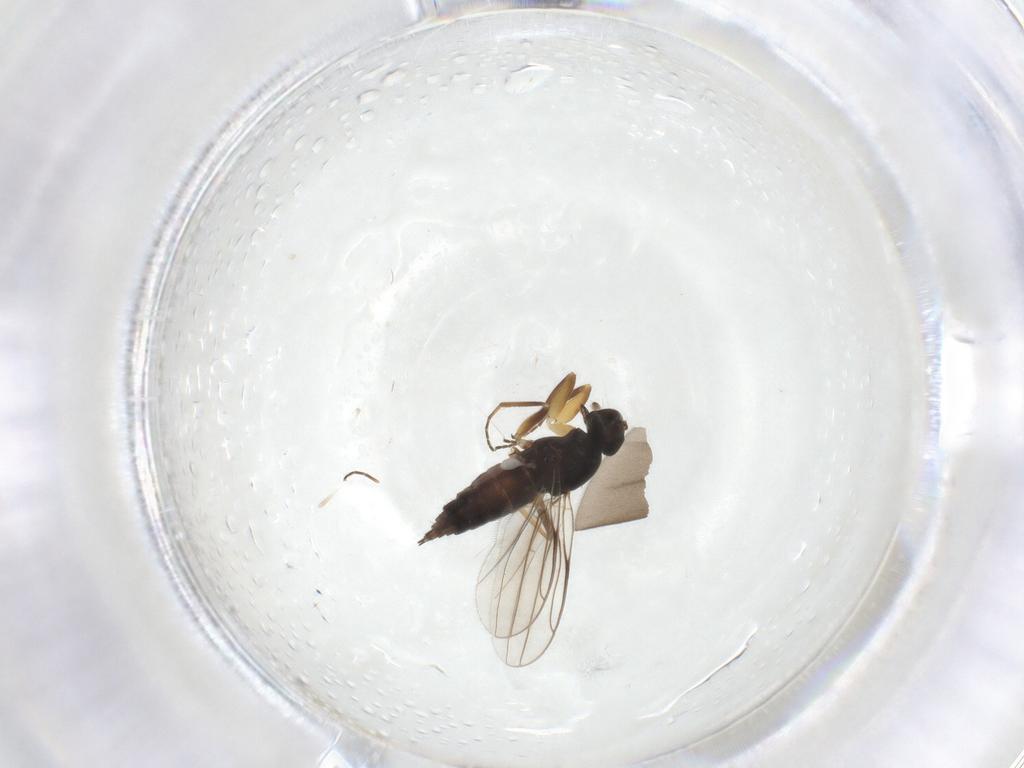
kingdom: Animalia
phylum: Arthropoda
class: Insecta
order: Diptera
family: Hybotidae
